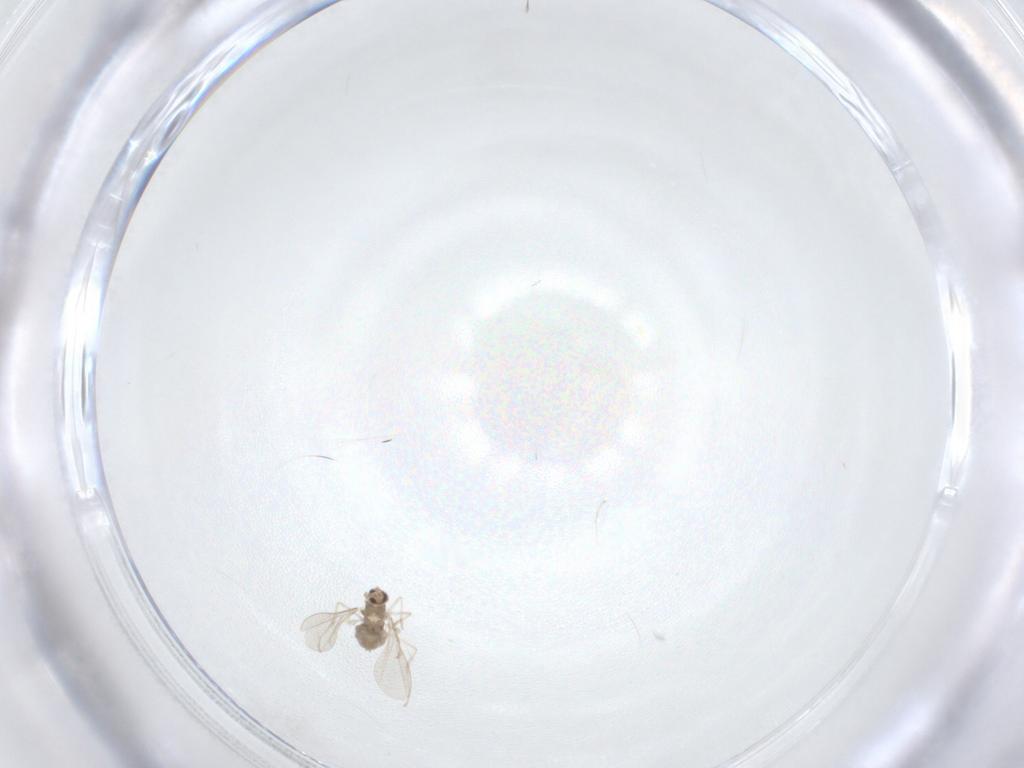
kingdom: Animalia
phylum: Arthropoda
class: Insecta
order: Diptera
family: Cecidomyiidae
